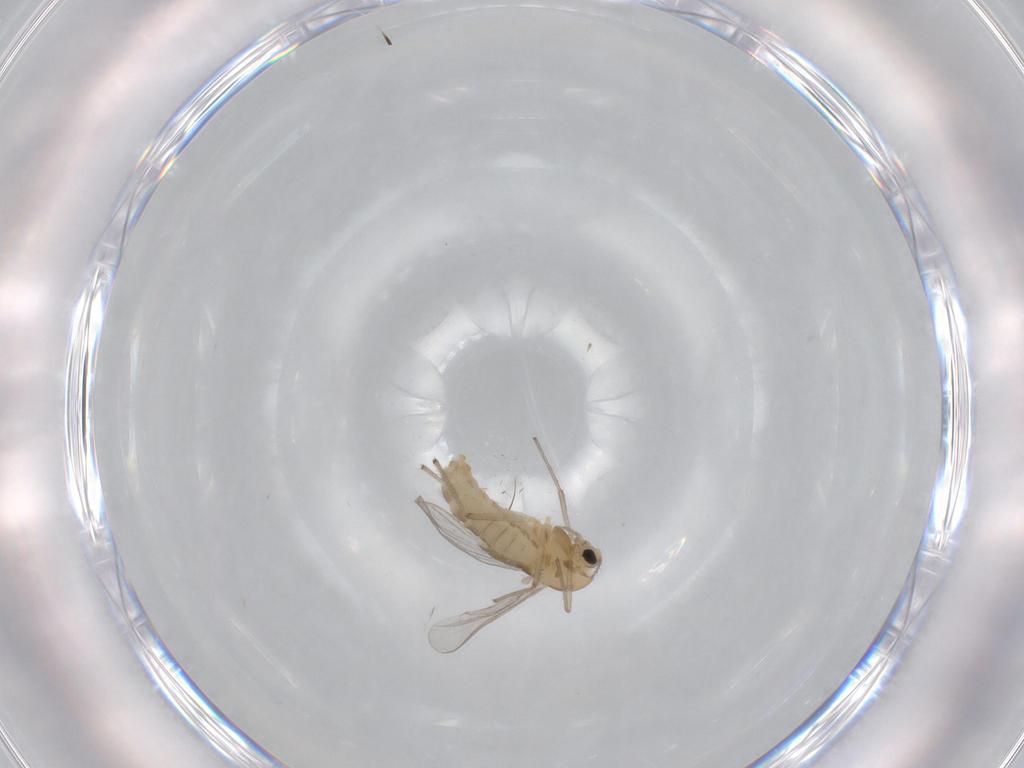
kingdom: Animalia
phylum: Arthropoda
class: Insecta
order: Diptera
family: Chironomidae
